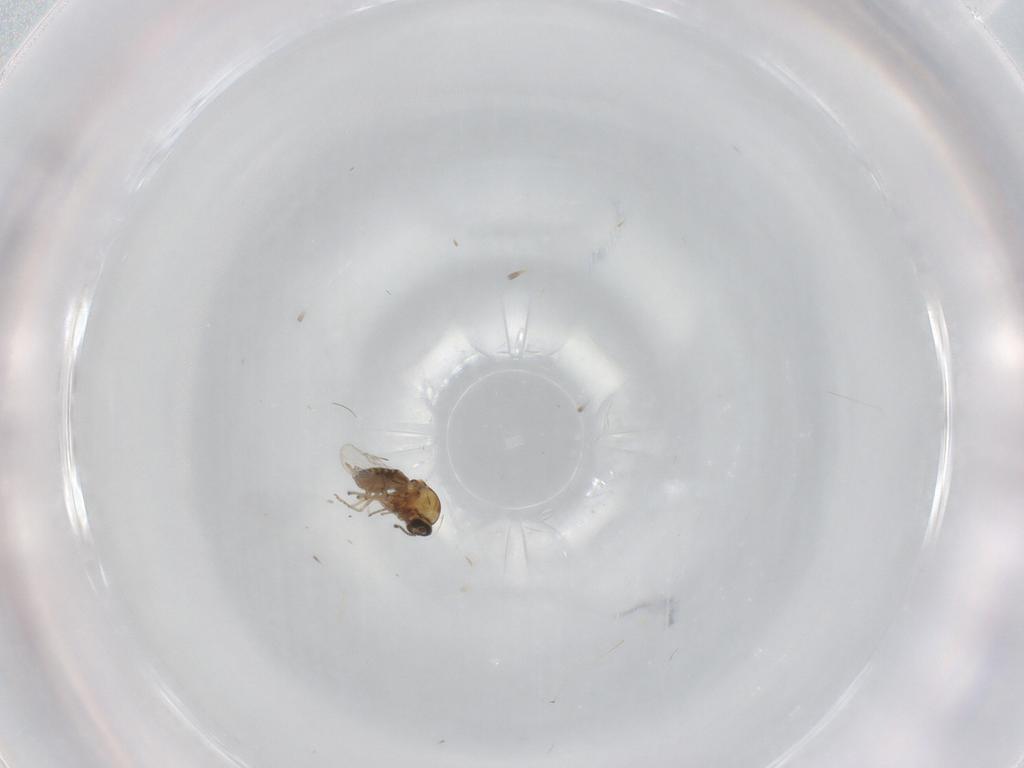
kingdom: Animalia
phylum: Arthropoda
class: Insecta
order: Diptera
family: Ceratopogonidae
